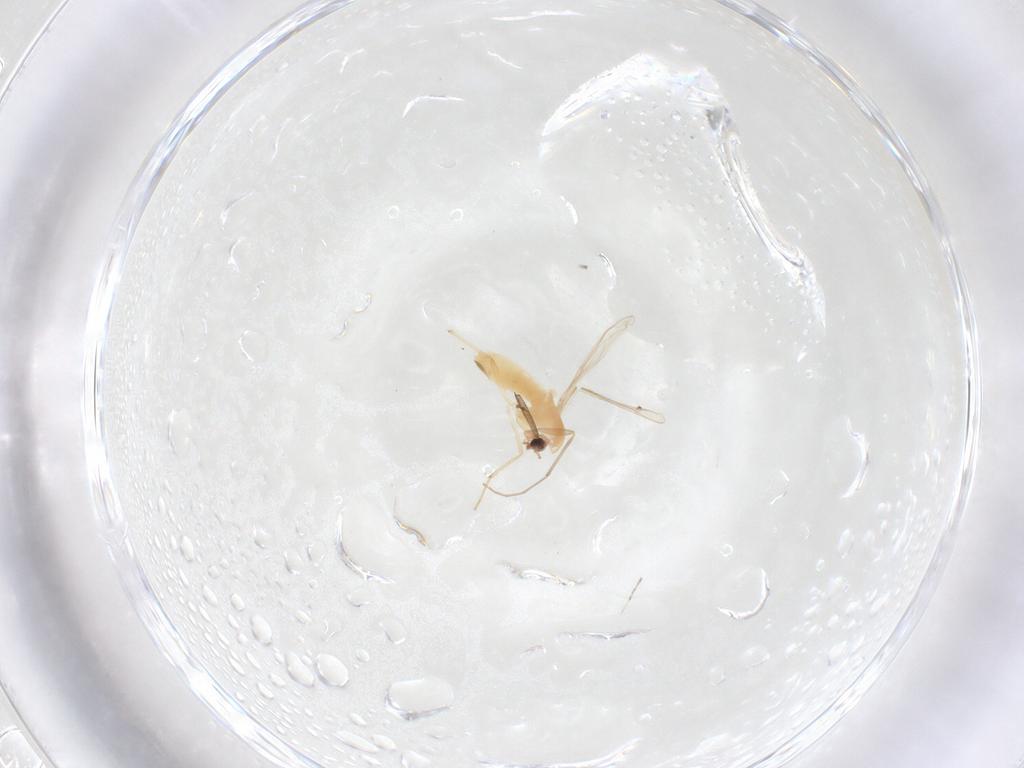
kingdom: Animalia
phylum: Arthropoda
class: Insecta
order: Diptera
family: Chironomidae
